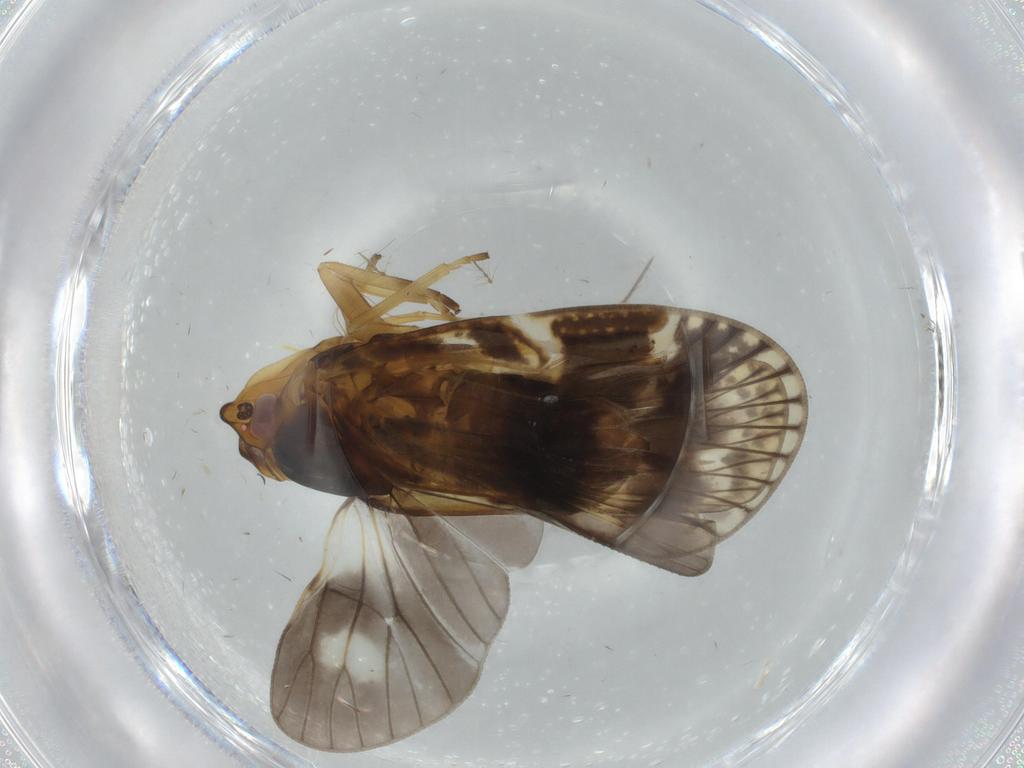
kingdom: Animalia
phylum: Arthropoda
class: Insecta
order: Hemiptera
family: Cixiidae
